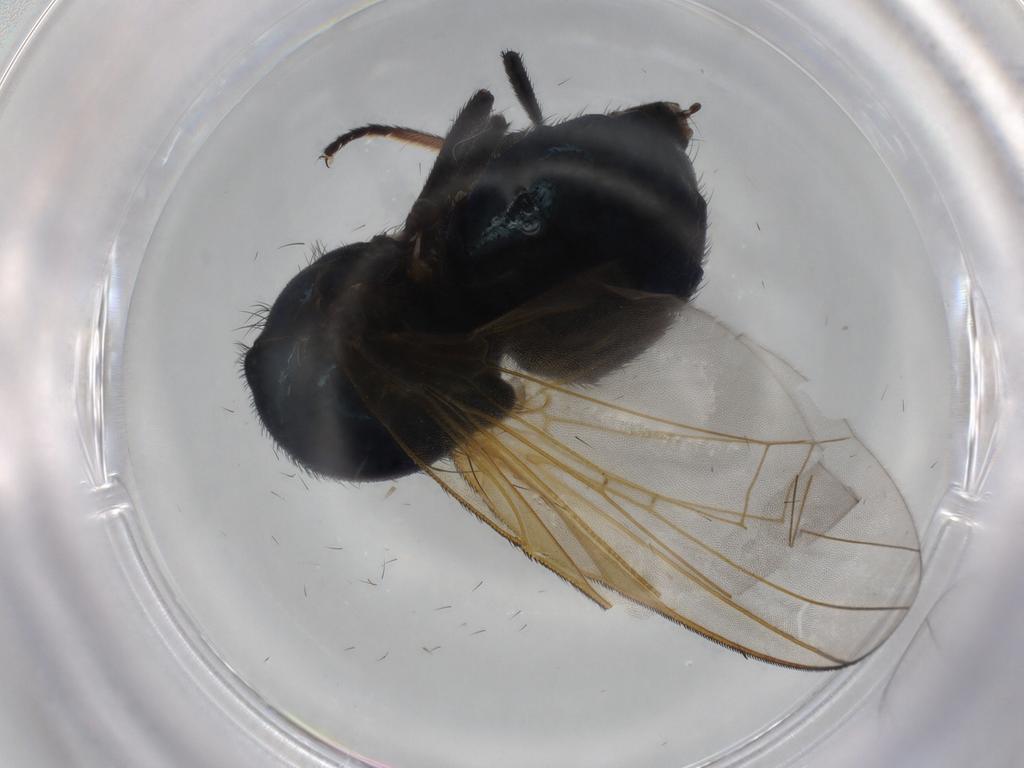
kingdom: Animalia
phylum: Arthropoda
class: Insecta
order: Diptera
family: Lonchaeidae
